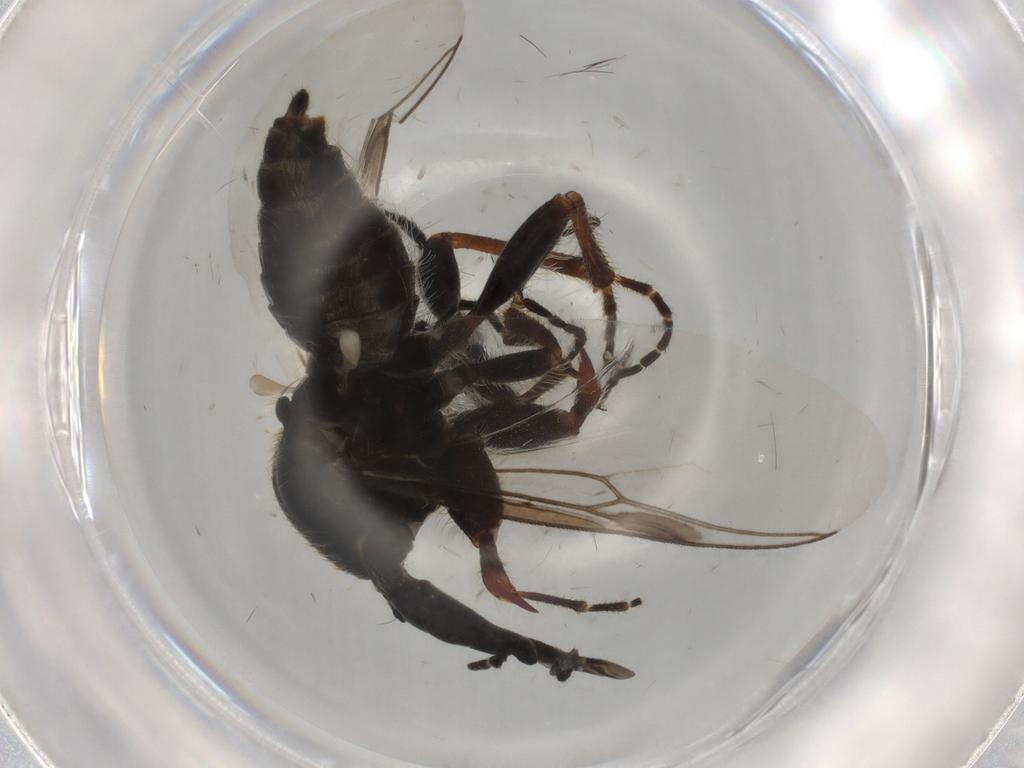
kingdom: Animalia
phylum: Arthropoda
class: Insecta
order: Diptera
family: Bibionidae
